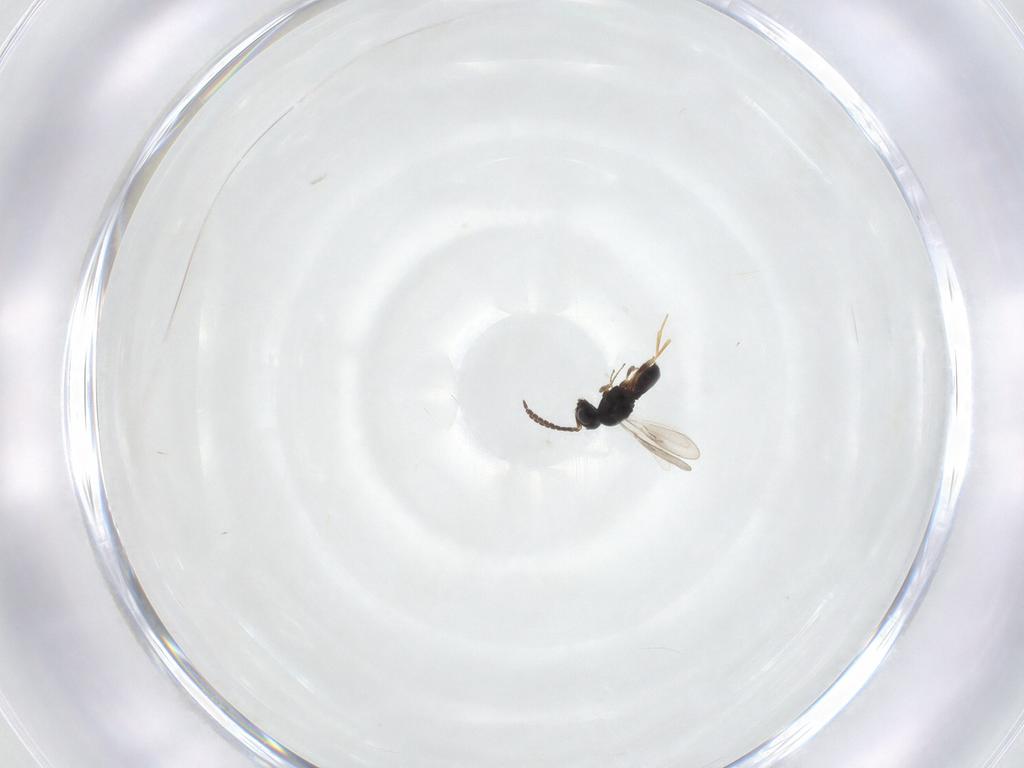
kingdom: Animalia
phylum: Arthropoda
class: Insecta
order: Hymenoptera
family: Scelionidae
